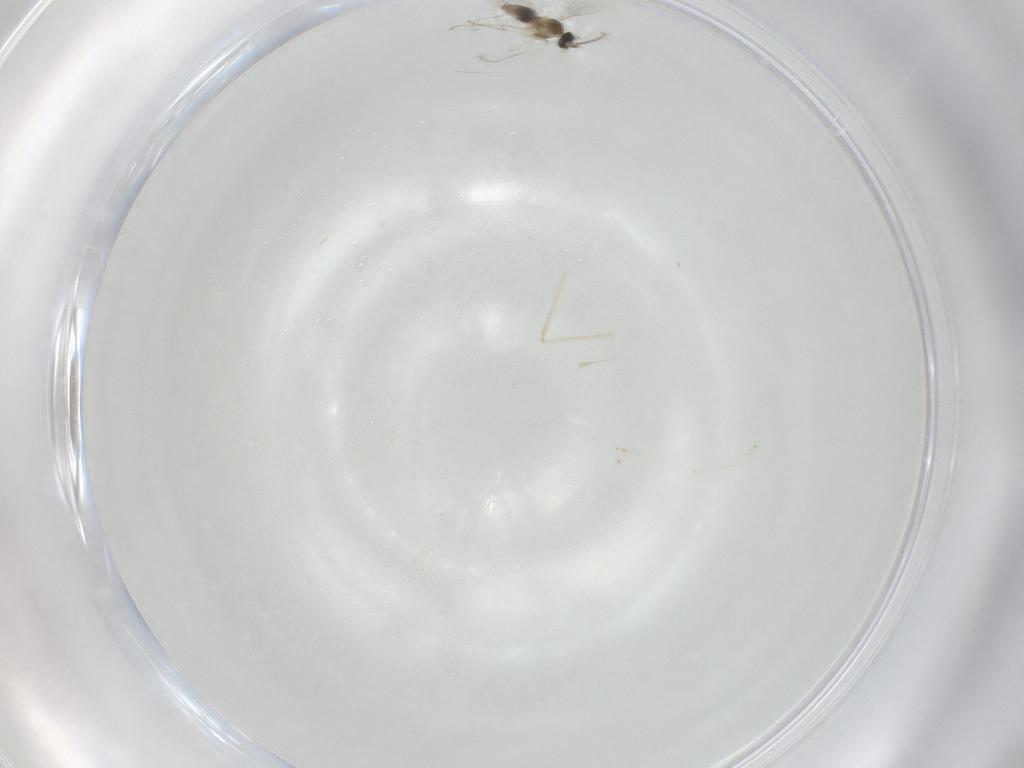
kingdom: Animalia
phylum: Arthropoda
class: Insecta
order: Diptera
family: Cecidomyiidae
